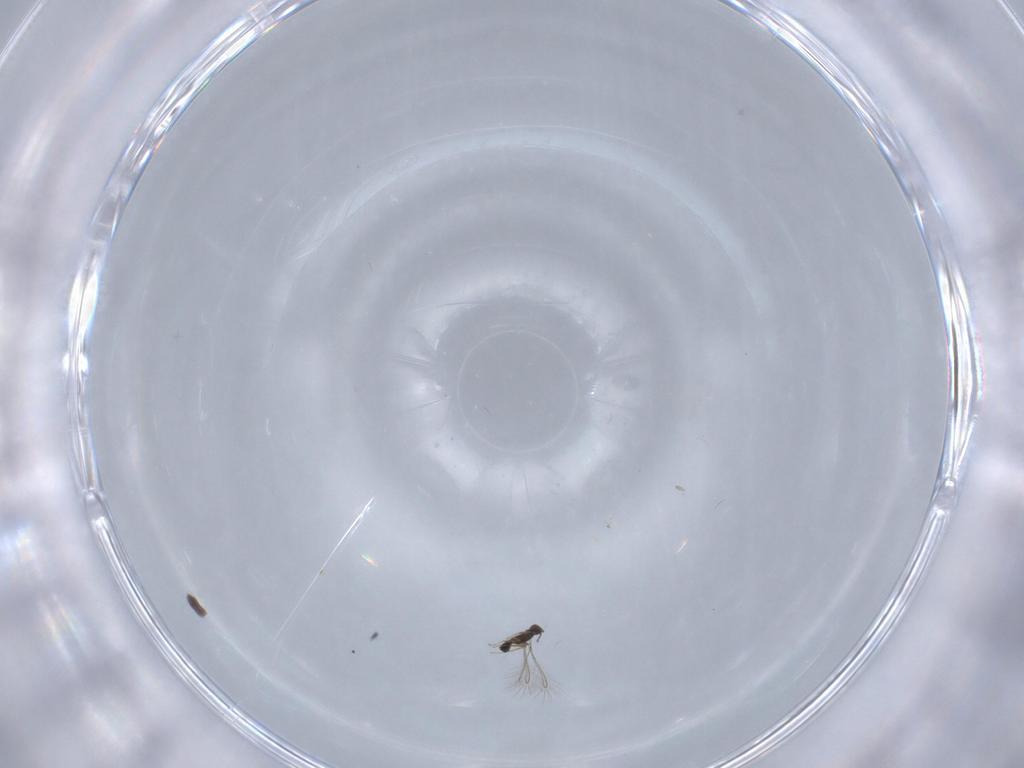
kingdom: Animalia
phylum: Arthropoda
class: Insecta
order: Hymenoptera
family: Mymaridae
